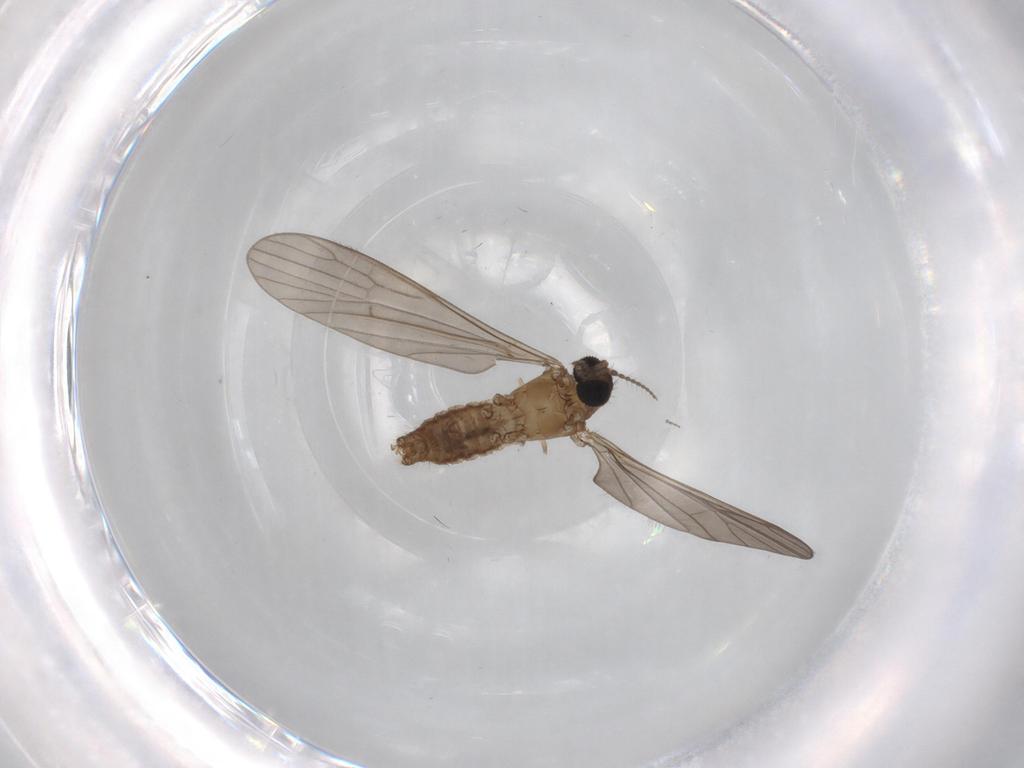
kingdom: Animalia
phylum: Arthropoda
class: Insecta
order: Diptera
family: Sciaridae
